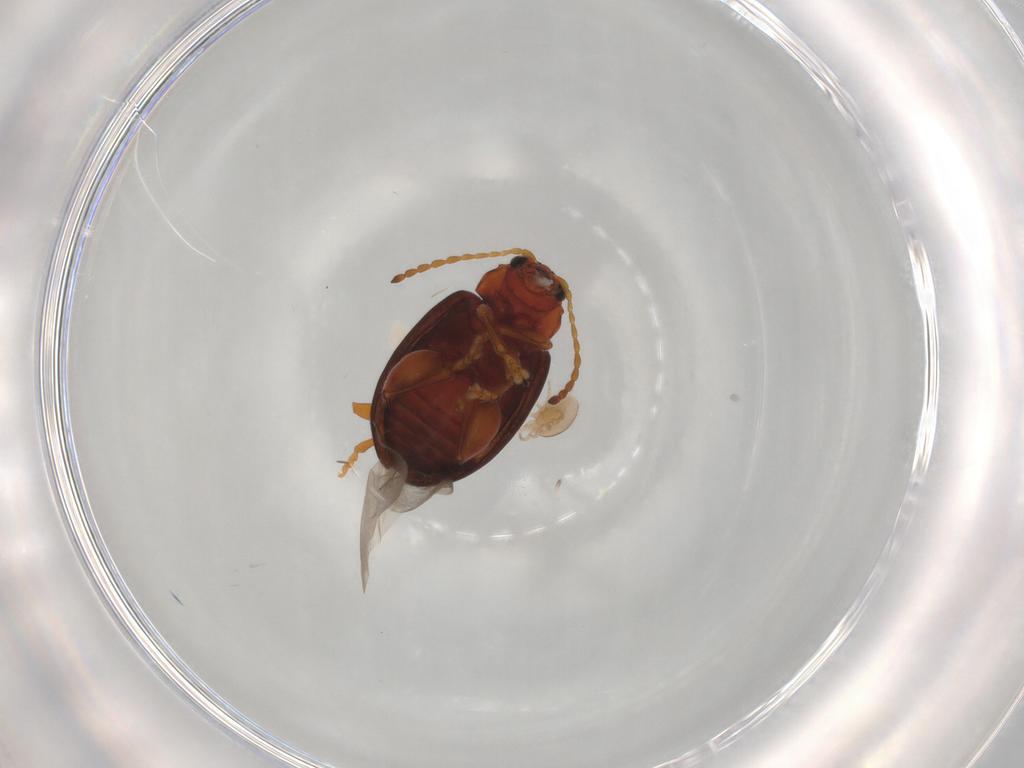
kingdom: Animalia
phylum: Arthropoda
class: Insecta
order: Coleoptera
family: Chrysomelidae
